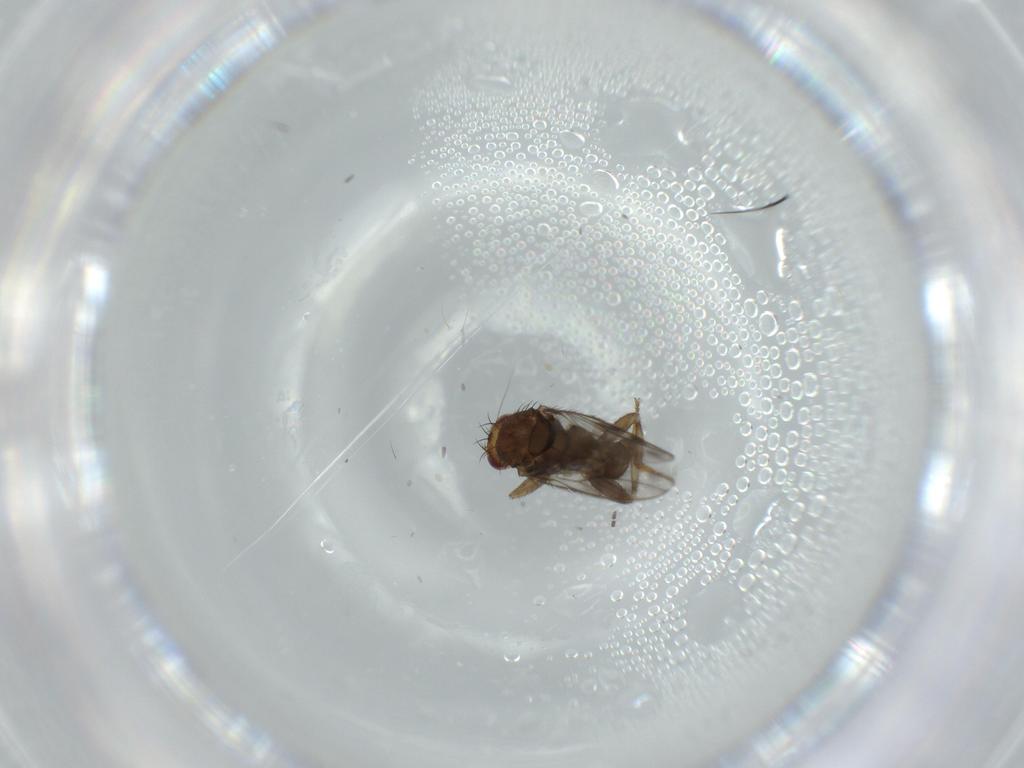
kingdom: Animalia
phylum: Arthropoda
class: Insecta
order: Diptera
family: Sphaeroceridae
